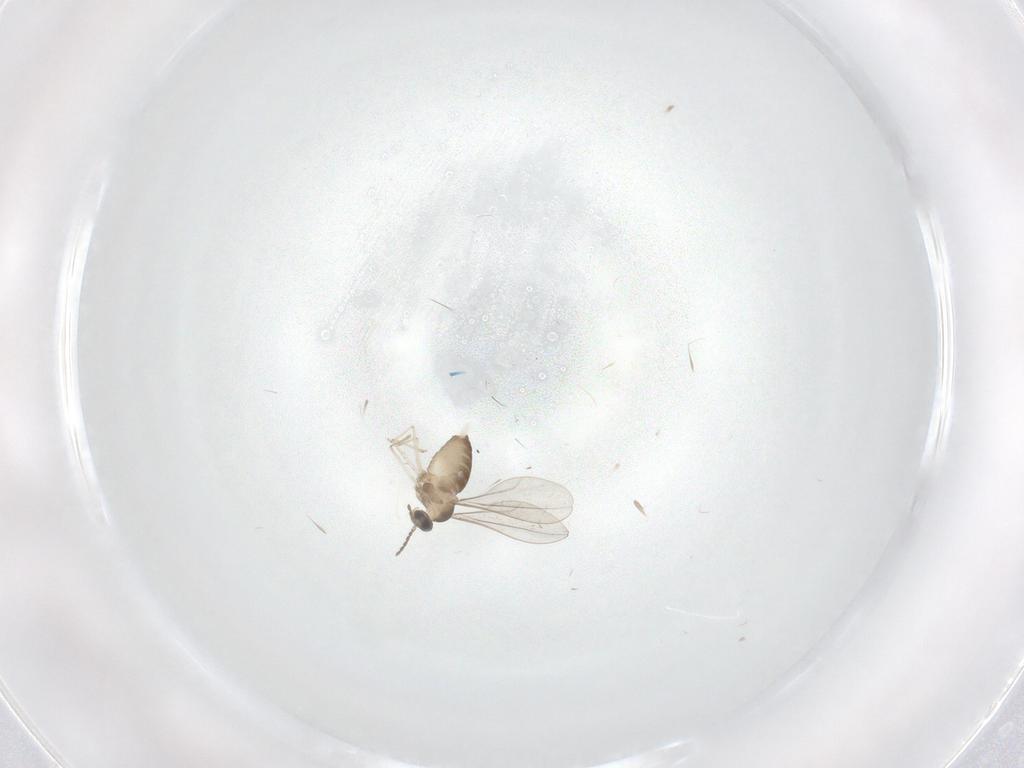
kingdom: Animalia
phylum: Arthropoda
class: Insecta
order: Diptera
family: Cecidomyiidae
